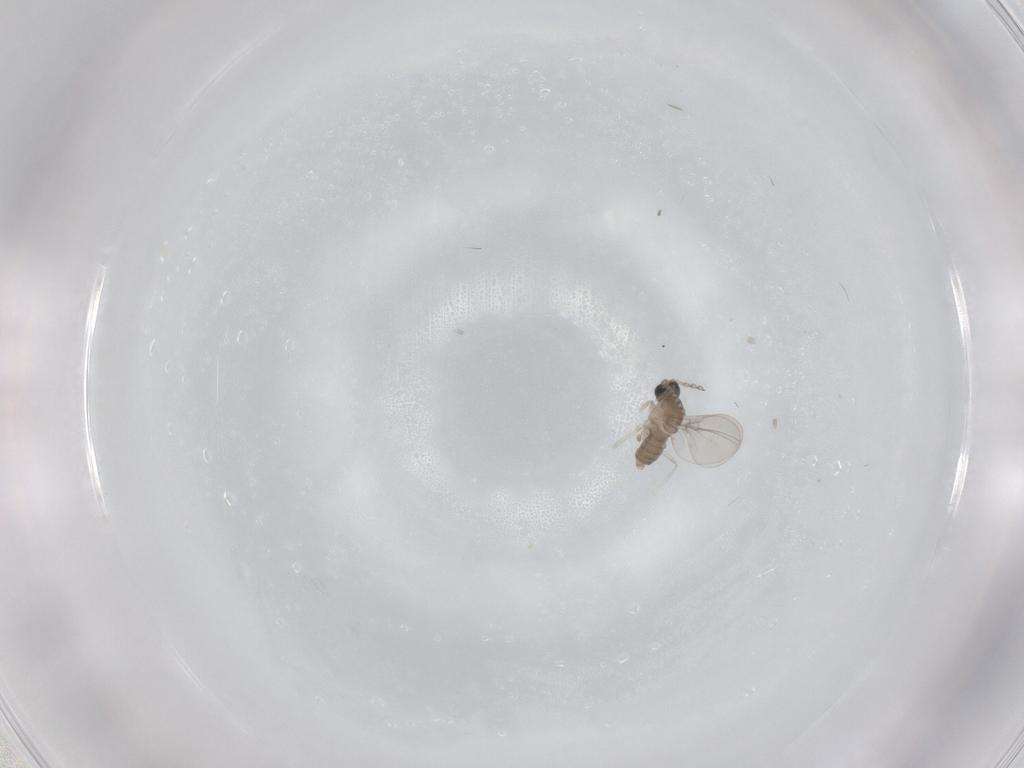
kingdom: Animalia
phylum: Arthropoda
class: Insecta
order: Diptera
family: Cecidomyiidae
